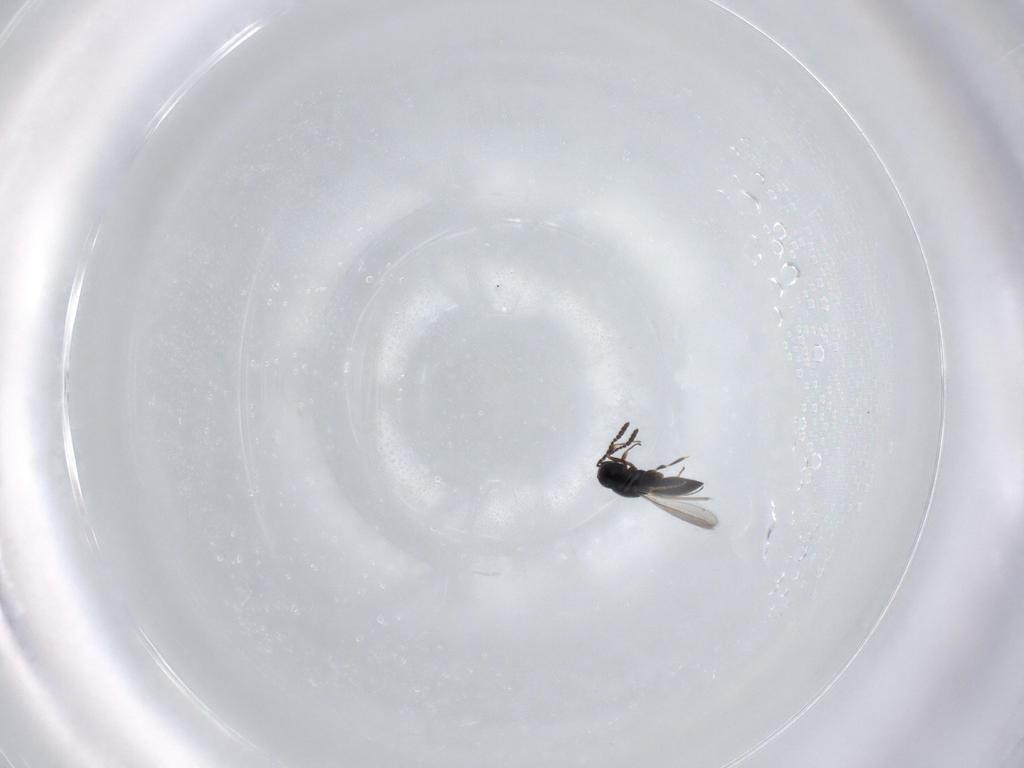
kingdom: Animalia
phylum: Arthropoda
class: Insecta
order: Hymenoptera
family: Scelionidae
